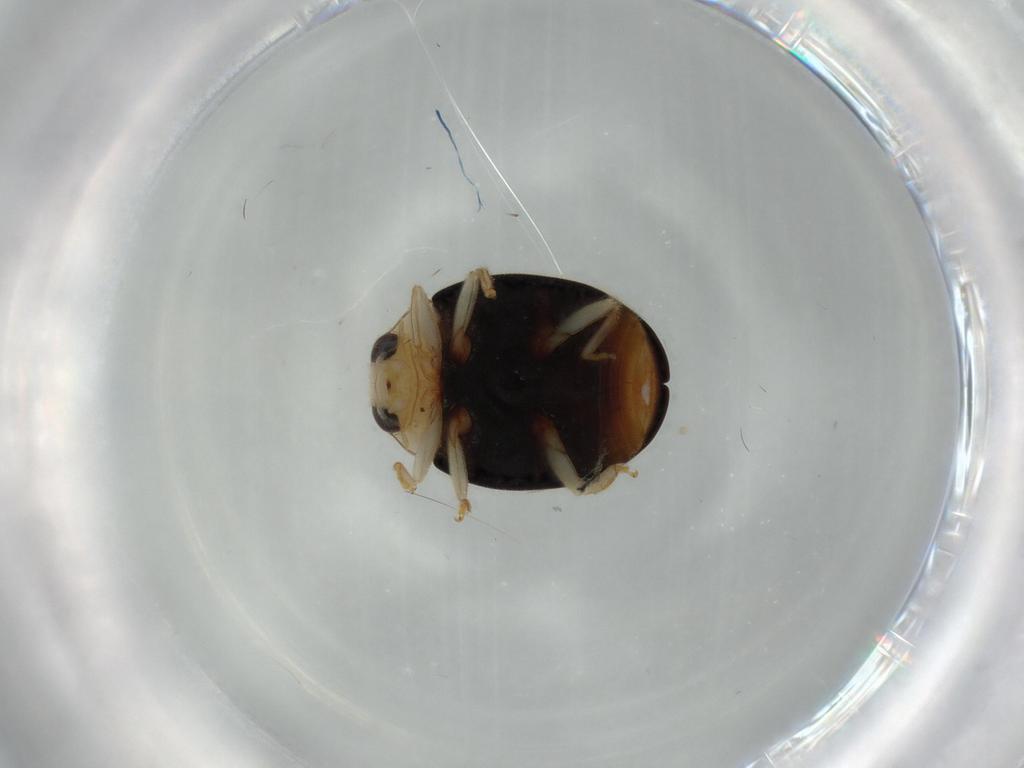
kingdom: Animalia
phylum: Arthropoda
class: Insecta
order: Coleoptera
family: Coccinellidae
